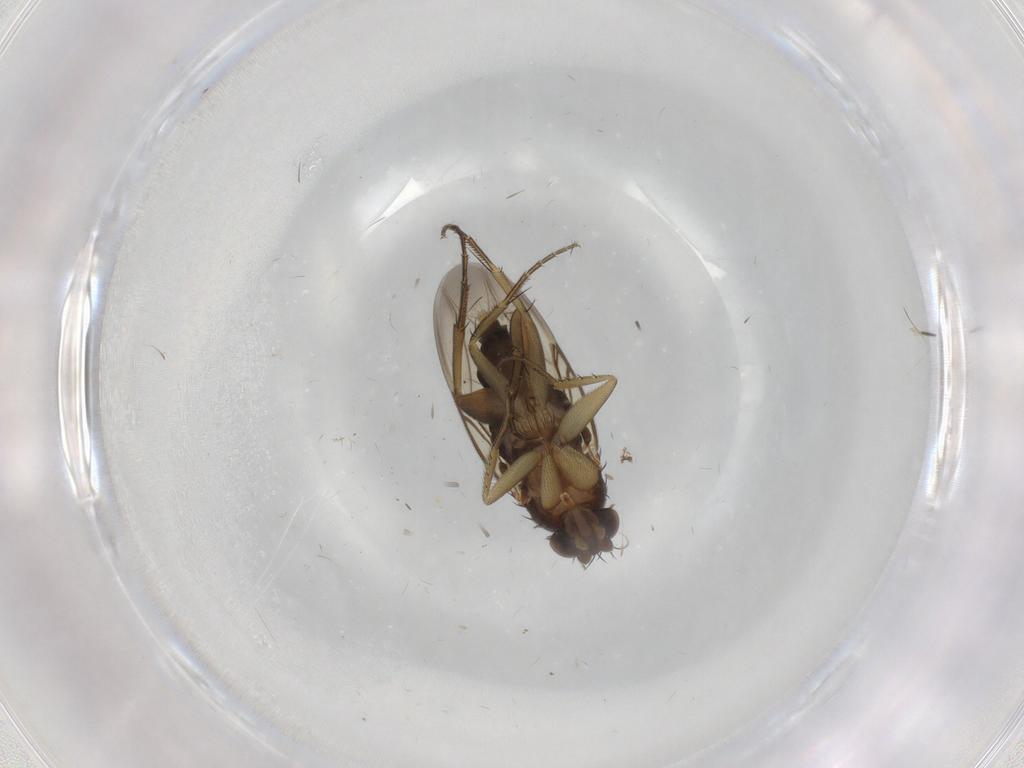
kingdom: Animalia
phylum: Arthropoda
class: Insecta
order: Diptera
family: Phoridae
